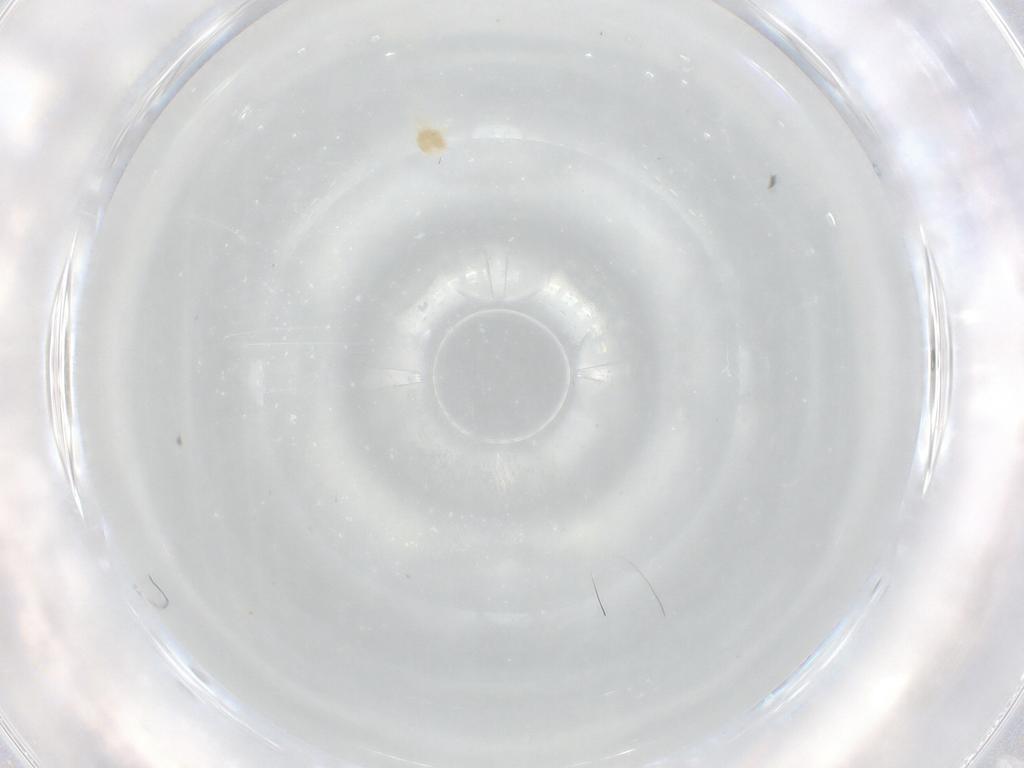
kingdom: Animalia
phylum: Arthropoda
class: Arachnida
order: Trombidiformes
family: Eupodidae
